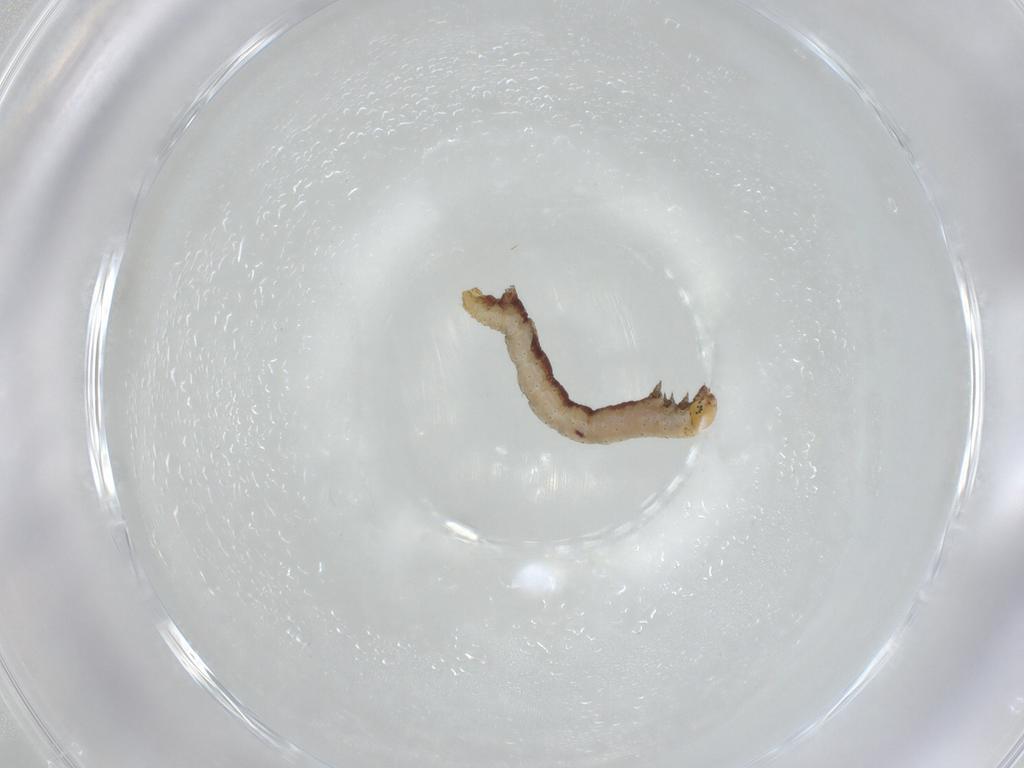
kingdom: Animalia
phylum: Arthropoda
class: Insecta
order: Lepidoptera
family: Geometridae
